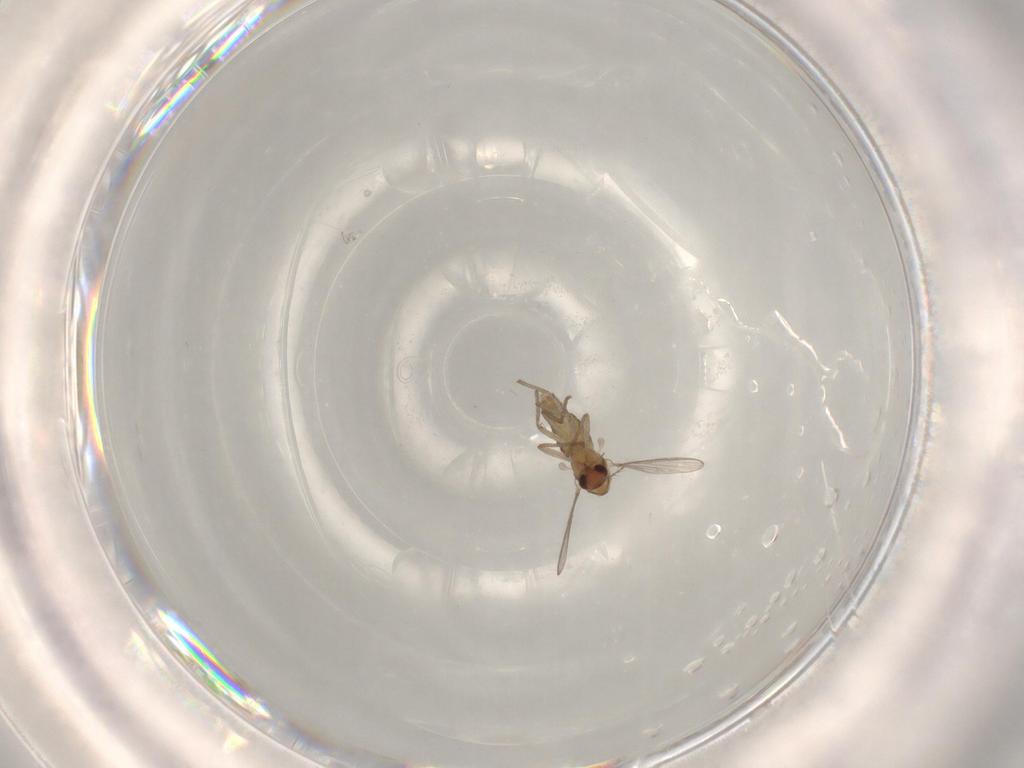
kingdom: Animalia
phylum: Arthropoda
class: Insecta
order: Diptera
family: Chironomidae
